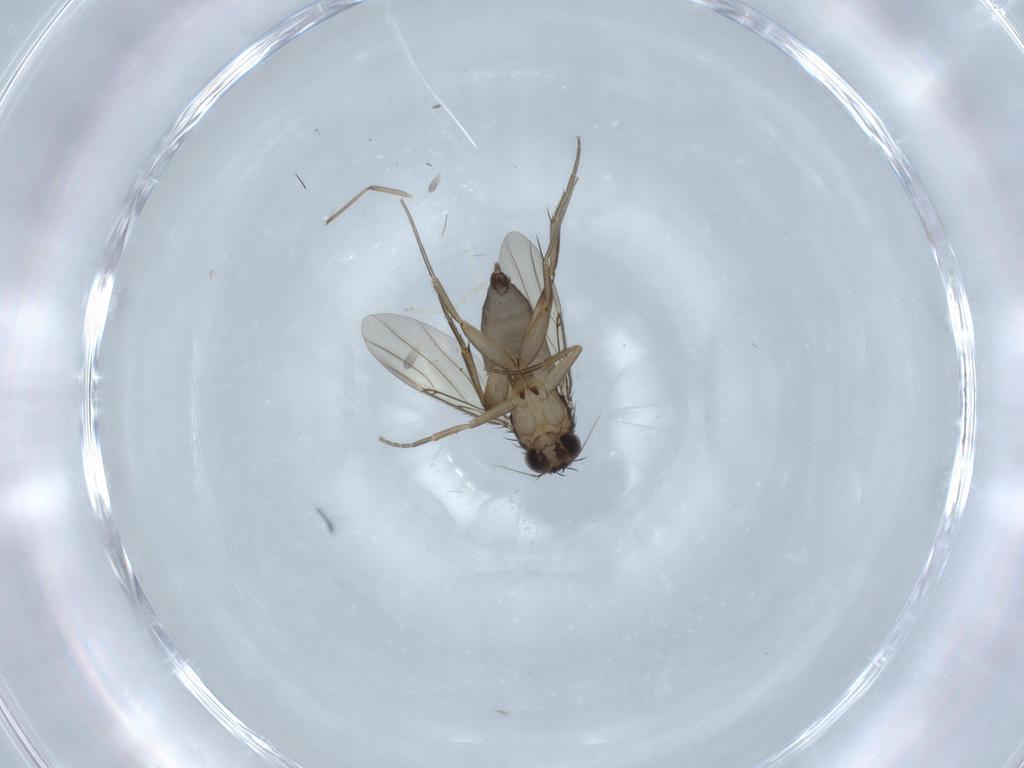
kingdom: Animalia
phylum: Arthropoda
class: Insecta
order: Diptera
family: Phoridae
